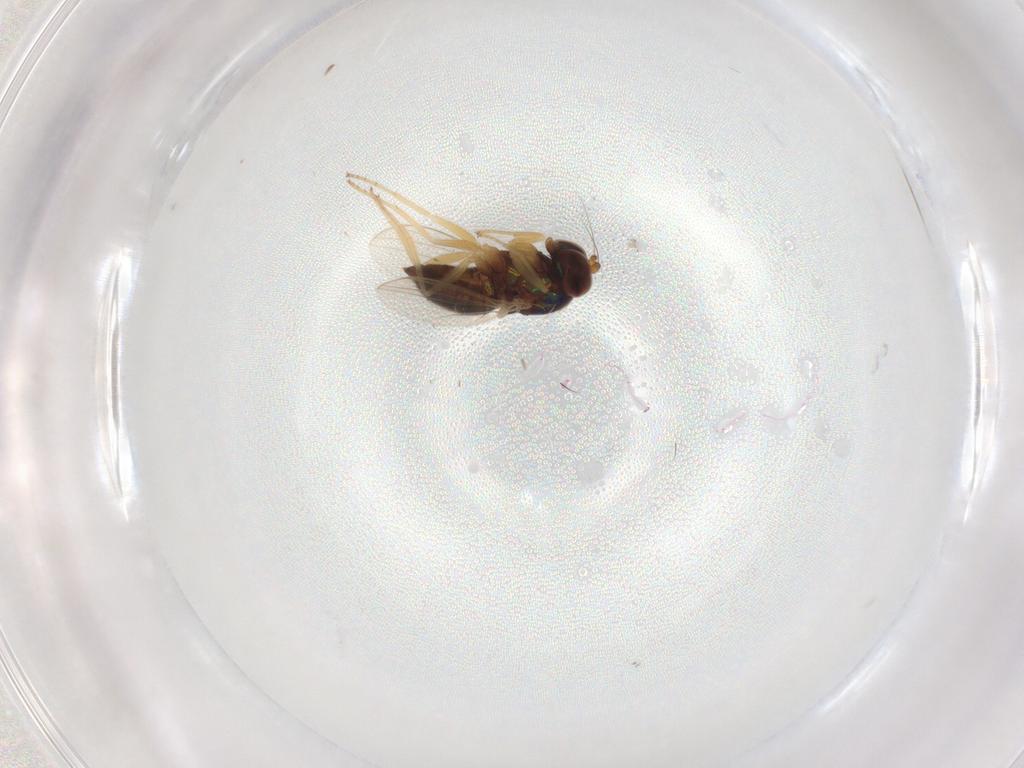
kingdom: Animalia
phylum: Arthropoda
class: Insecta
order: Diptera
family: Dolichopodidae
